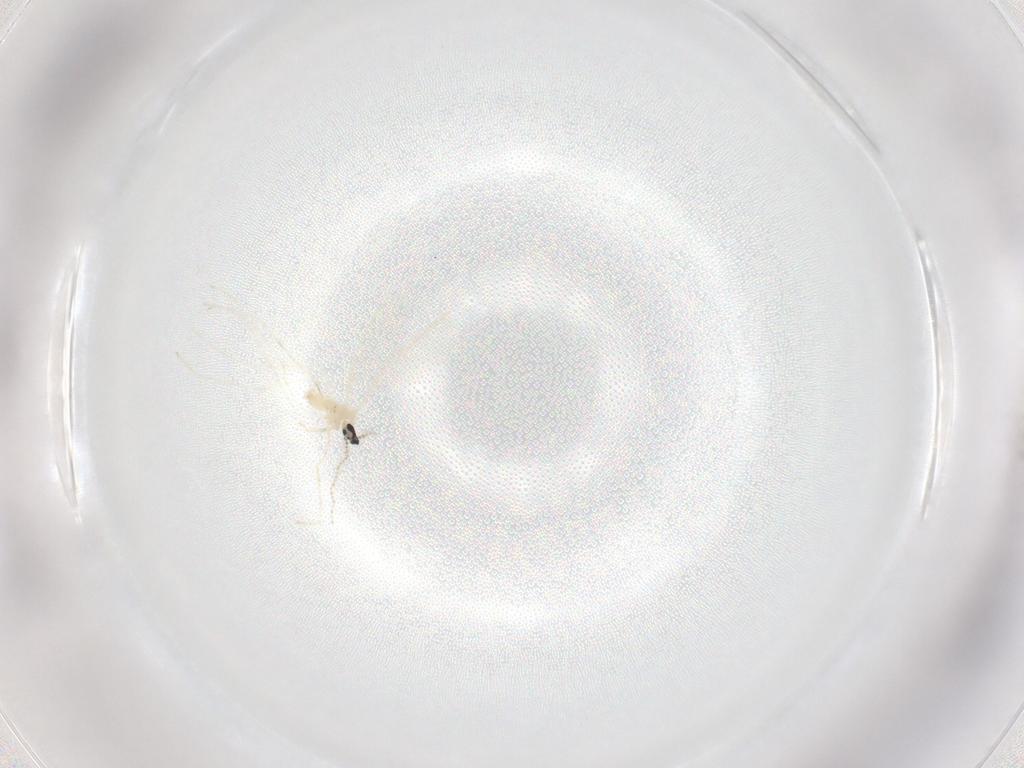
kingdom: Animalia
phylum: Arthropoda
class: Insecta
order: Diptera
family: Cecidomyiidae
